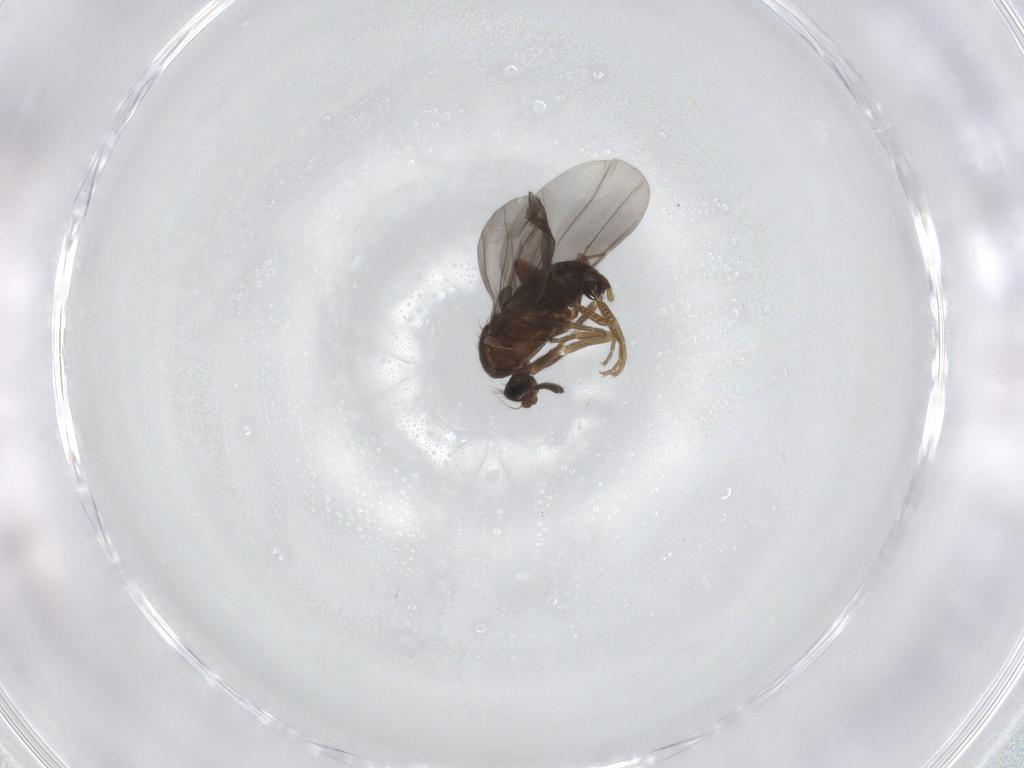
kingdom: Animalia
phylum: Arthropoda
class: Insecta
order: Diptera
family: Phoridae
